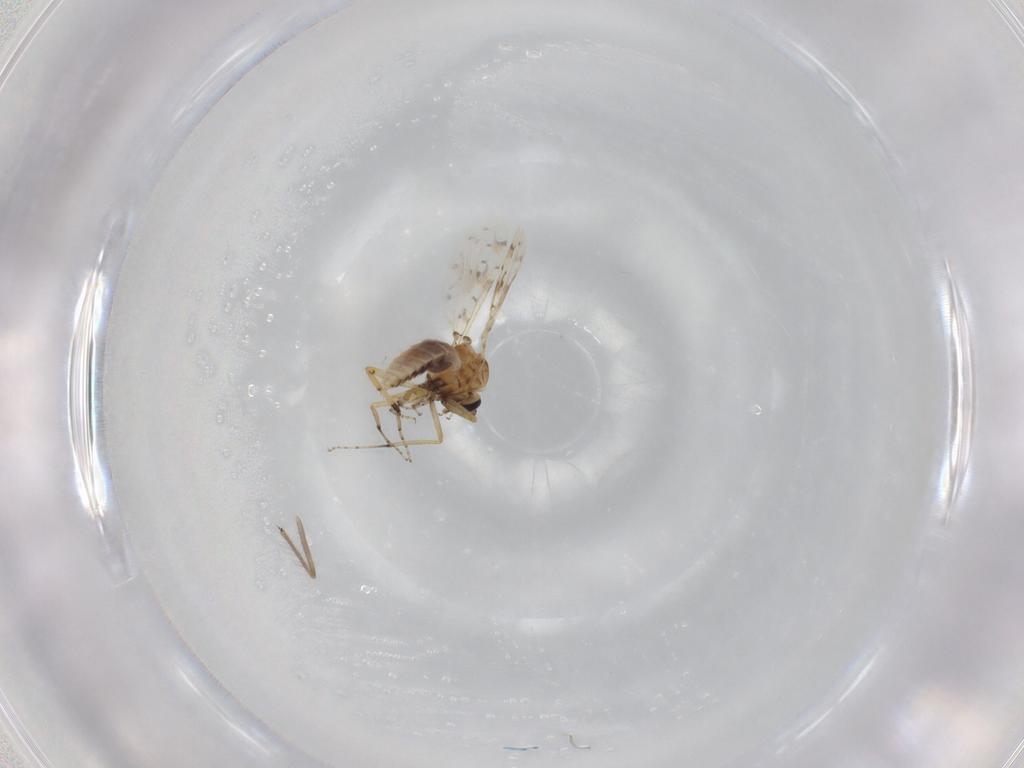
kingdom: Animalia
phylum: Arthropoda
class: Insecta
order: Diptera
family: Ceratopogonidae
